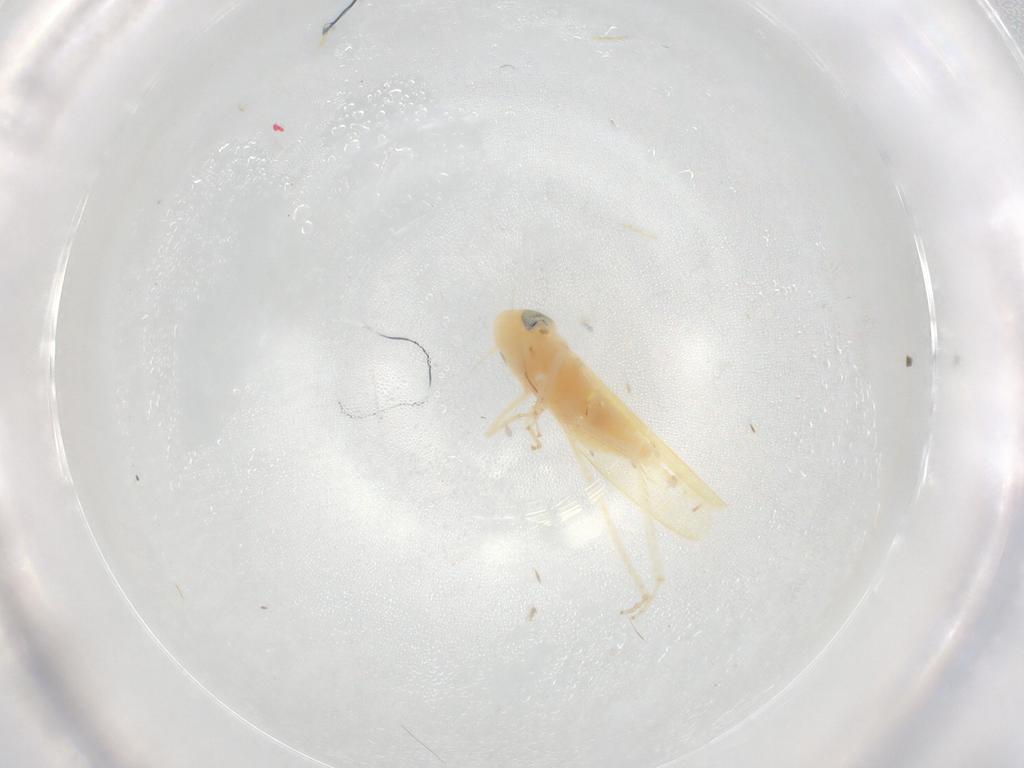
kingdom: Animalia
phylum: Arthropoda
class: Insecta
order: Hemiptera
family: Cicadellidae
